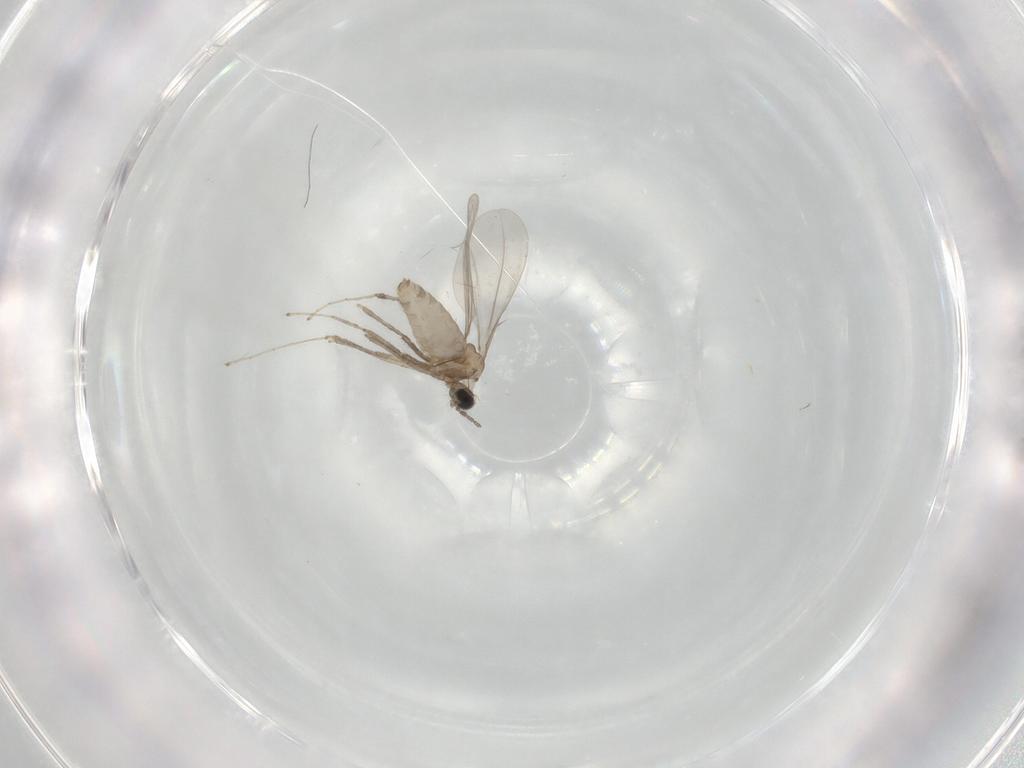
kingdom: Animalia
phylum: Arthropoda
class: Insecta
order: Diptera
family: Cecidomyiidae
